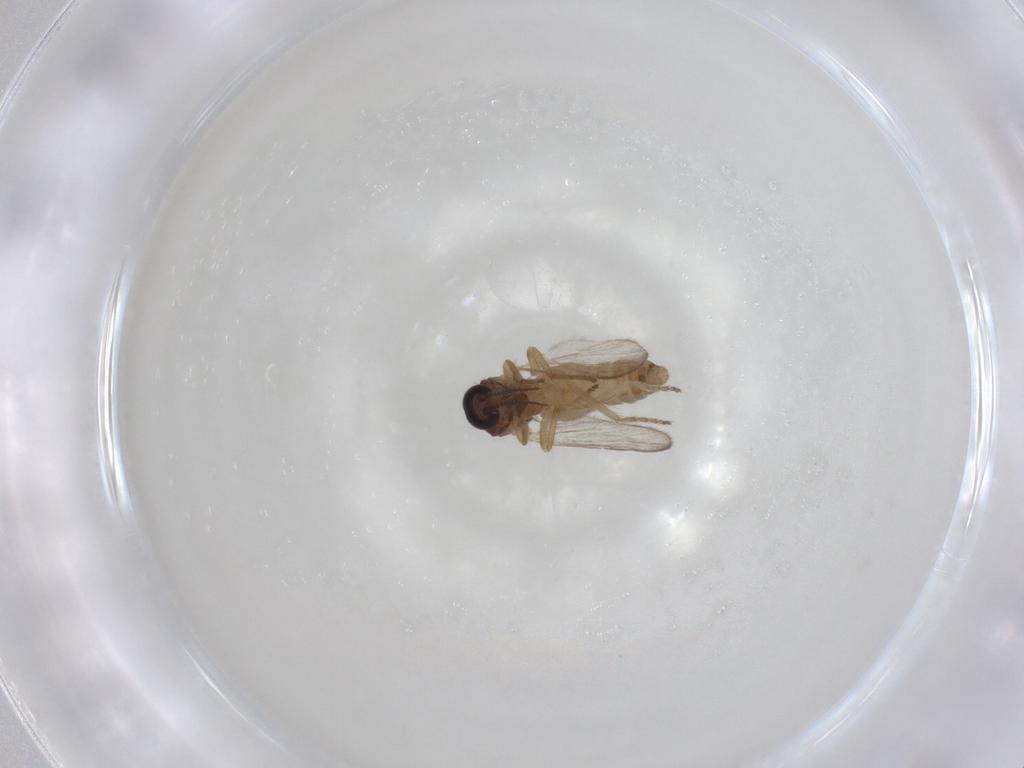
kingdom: Animalia
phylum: Arthropoda
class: Insecta
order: Diptera
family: Ceratopogonidae
